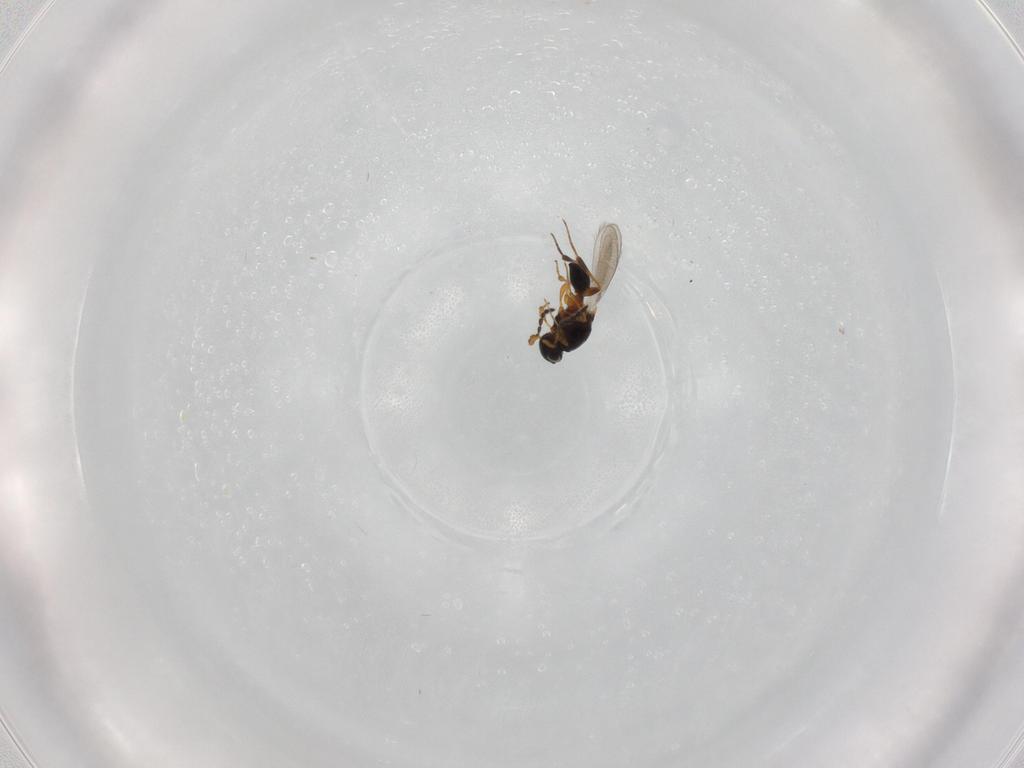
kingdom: Animalia
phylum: Arthropoda
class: Insecta
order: Hymenoptera
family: Platygastridae
